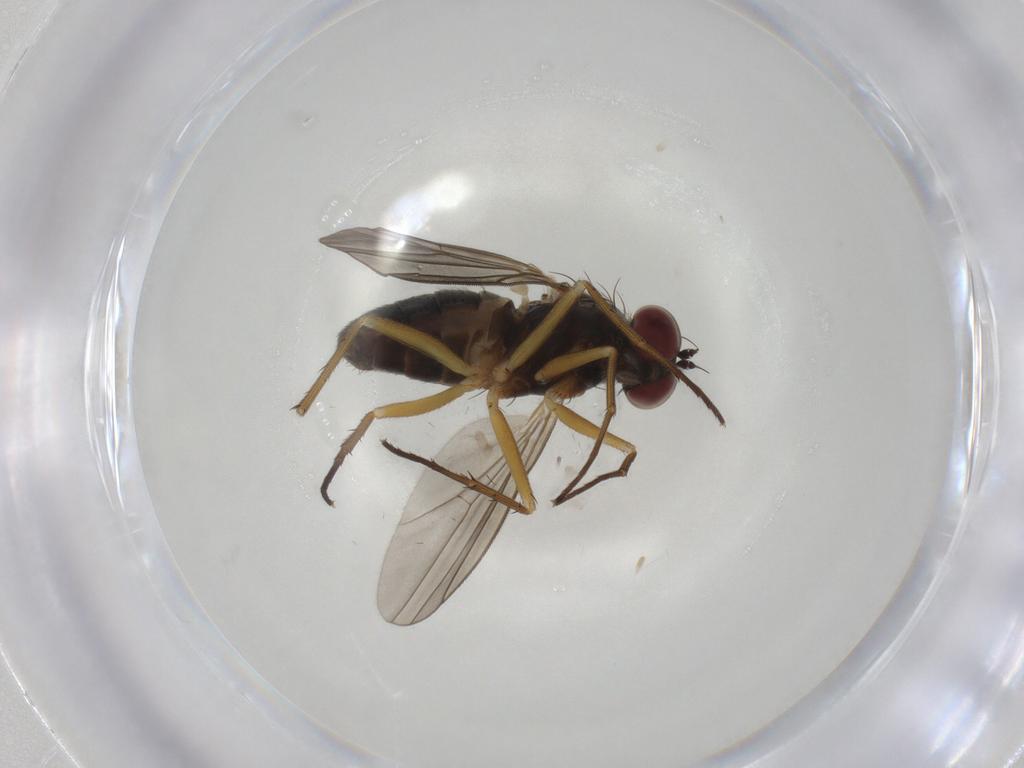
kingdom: Animalia
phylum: Arthropoda
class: Insecta
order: Diptera
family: Dolichopodidae
